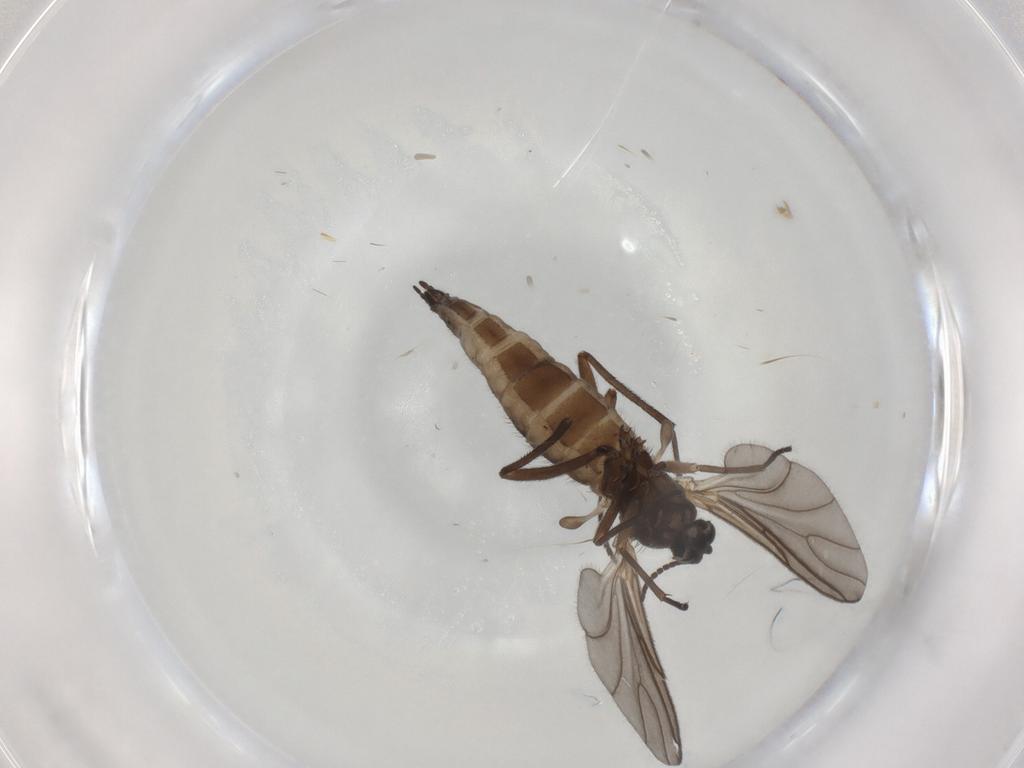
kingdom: Animalia
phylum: Arthropoda
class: Insecta
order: Diptera
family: Sciaridae
